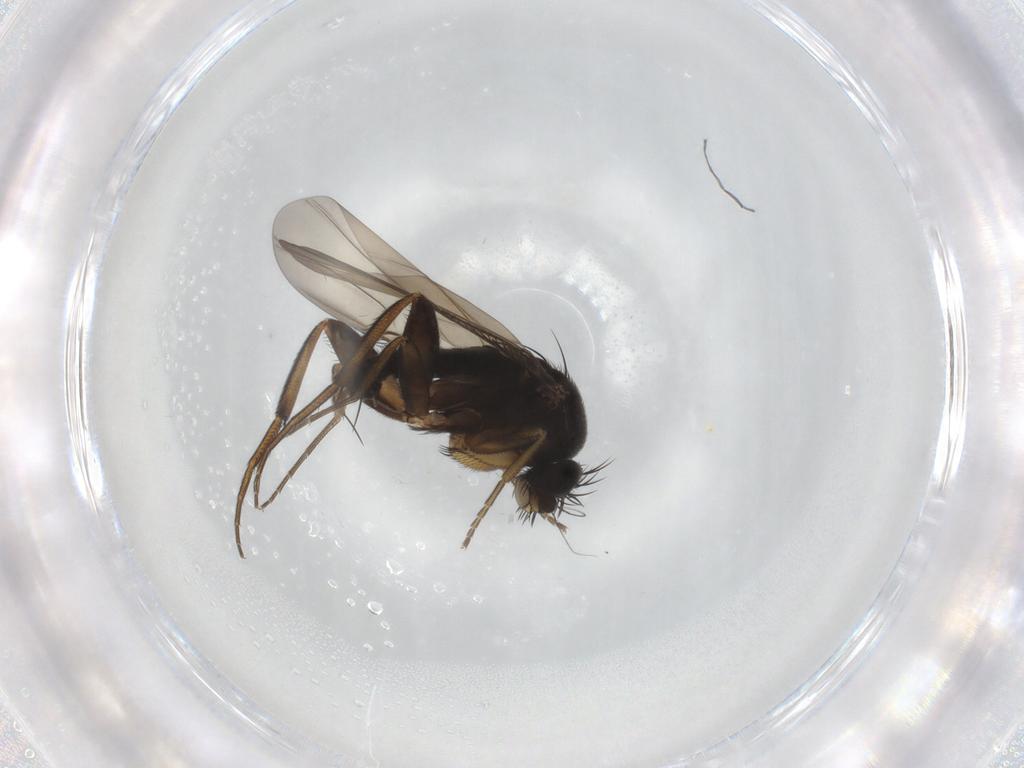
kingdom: Animalia
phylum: Arthropoda
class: Insecta
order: Diptera
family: Phoridae
